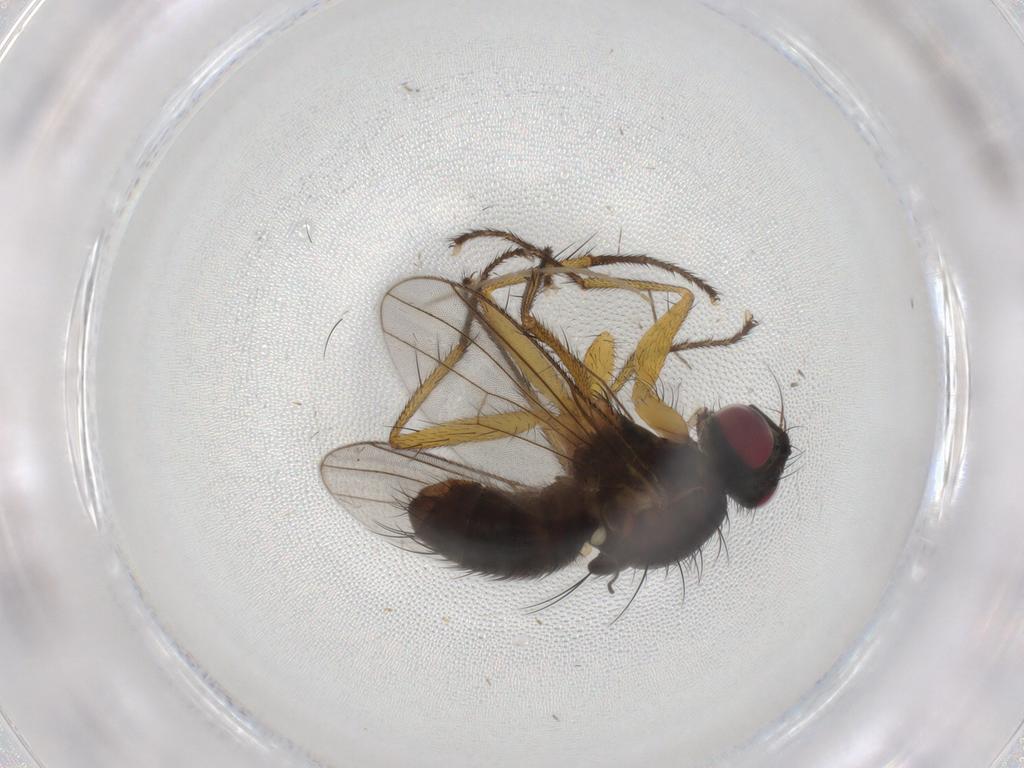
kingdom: Animalia
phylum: Arthropoda
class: Insecta
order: Diptera
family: Muscidae
